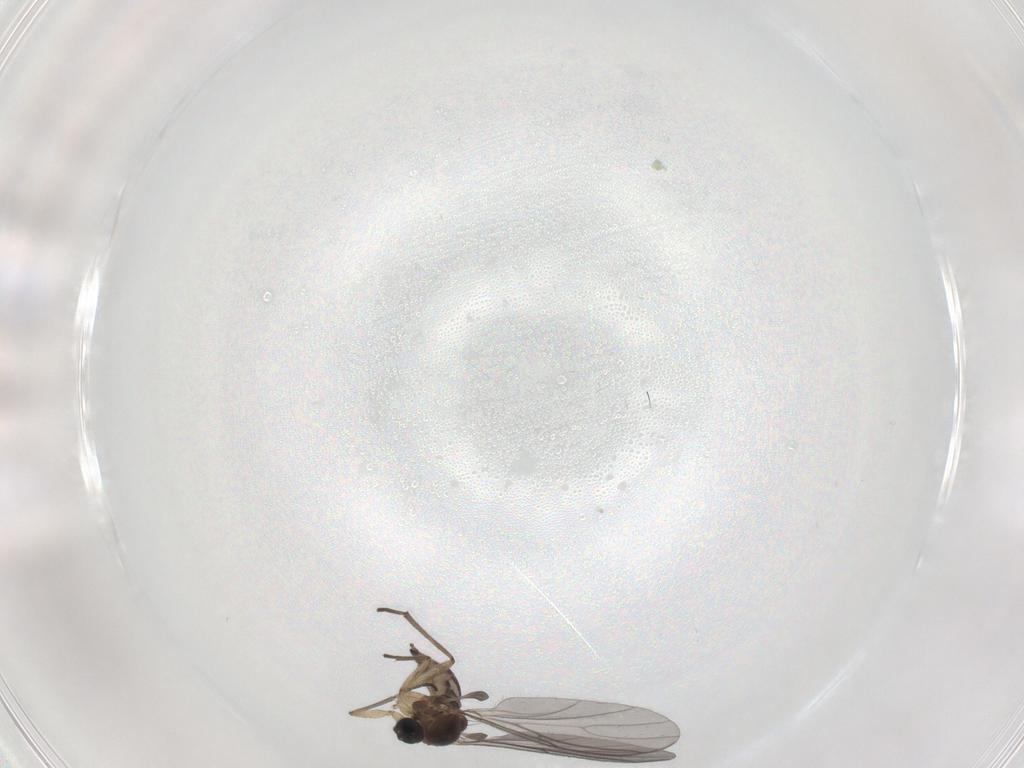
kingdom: Animalia
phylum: Arthropoda
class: Insecta
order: Diptera
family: Sciaridae
